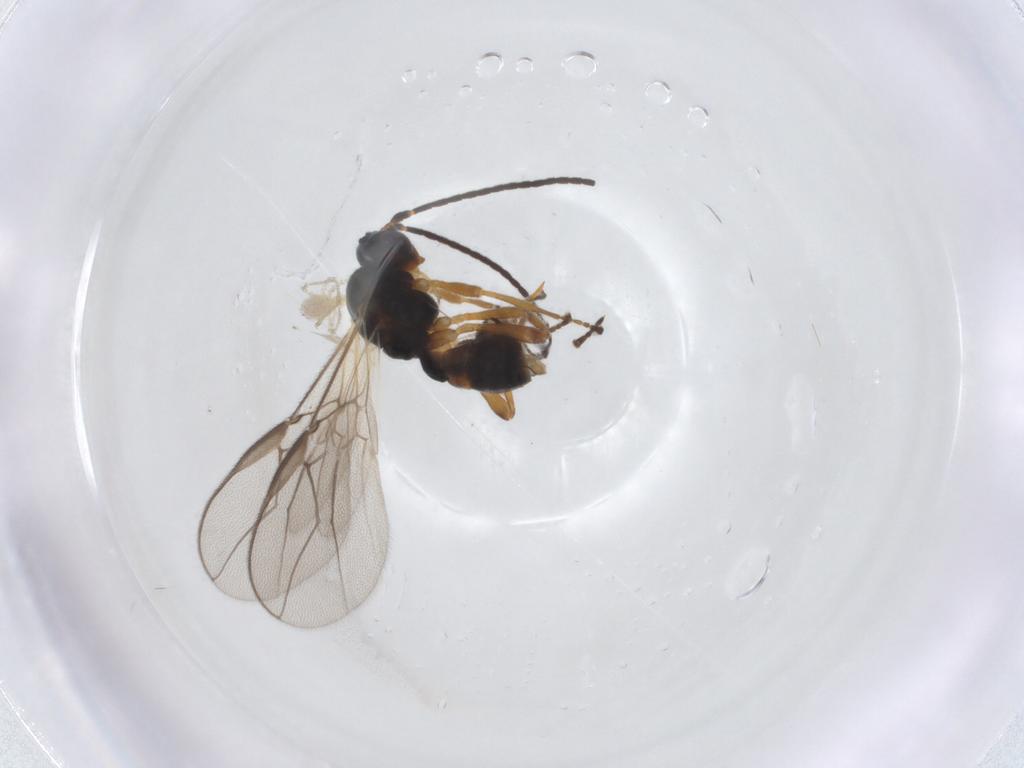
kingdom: Animalia
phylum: Arthropoda
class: Insecta
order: Hymenoptera
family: Braconidae
